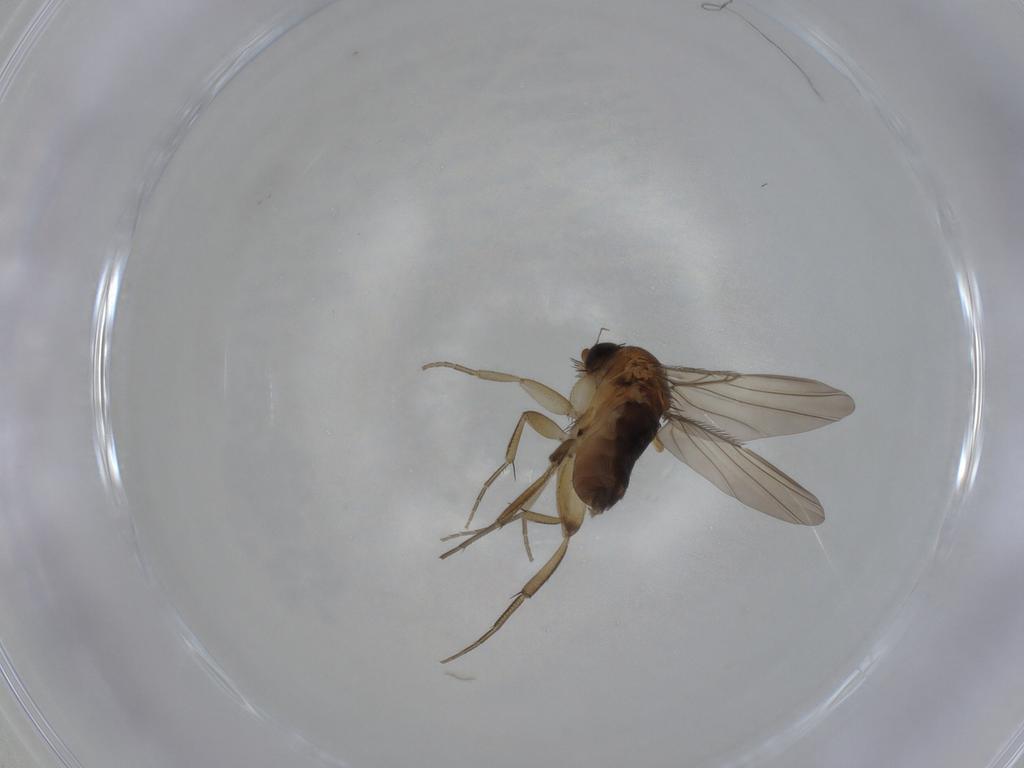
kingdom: Animalia
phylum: Arthropoda
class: Insecta
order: Diptera
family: Phoridae
